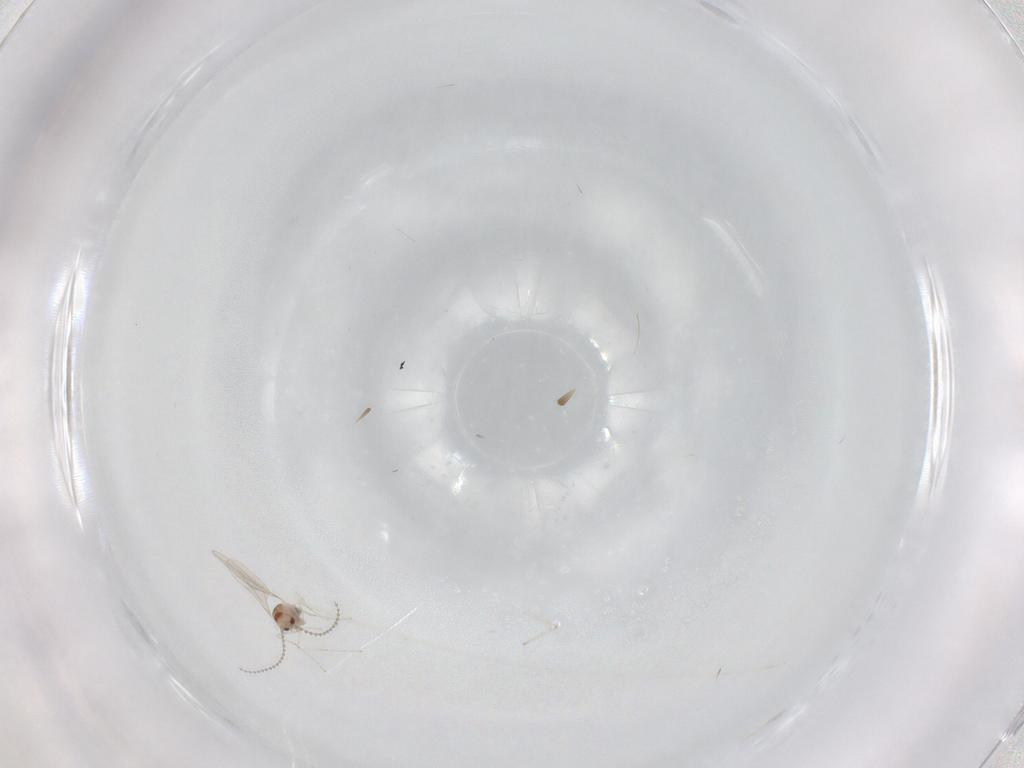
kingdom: Animalia
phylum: Arthropoda
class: Insecta
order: Diptera
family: Cecidomyiidae
